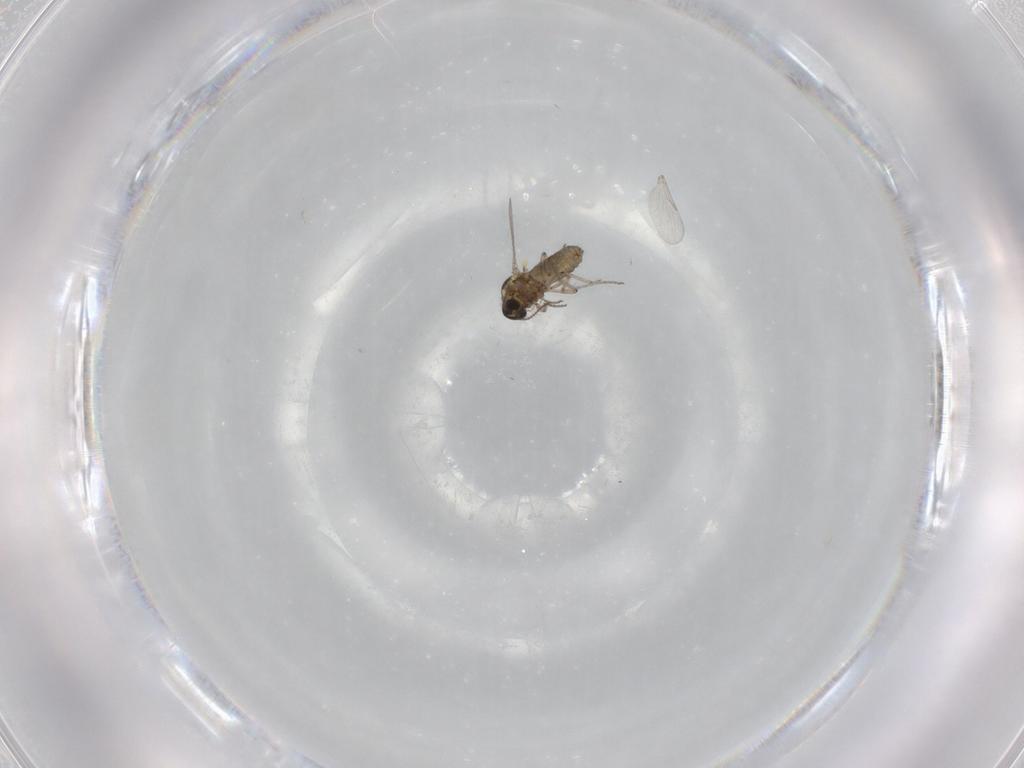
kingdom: Animalia
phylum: Arthropoda
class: Insecta
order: Diptera
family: Ceratopogonidae
